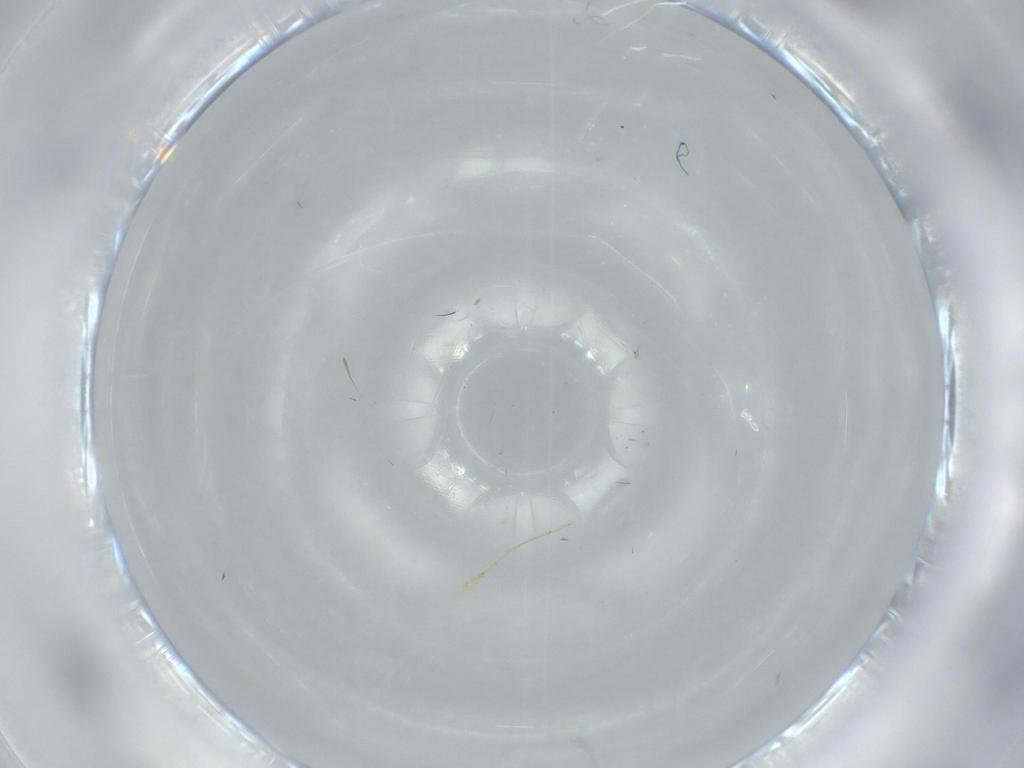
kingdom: Animalia
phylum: Arthropoda
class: Insecta
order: Psocodea
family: Liposcelididae
